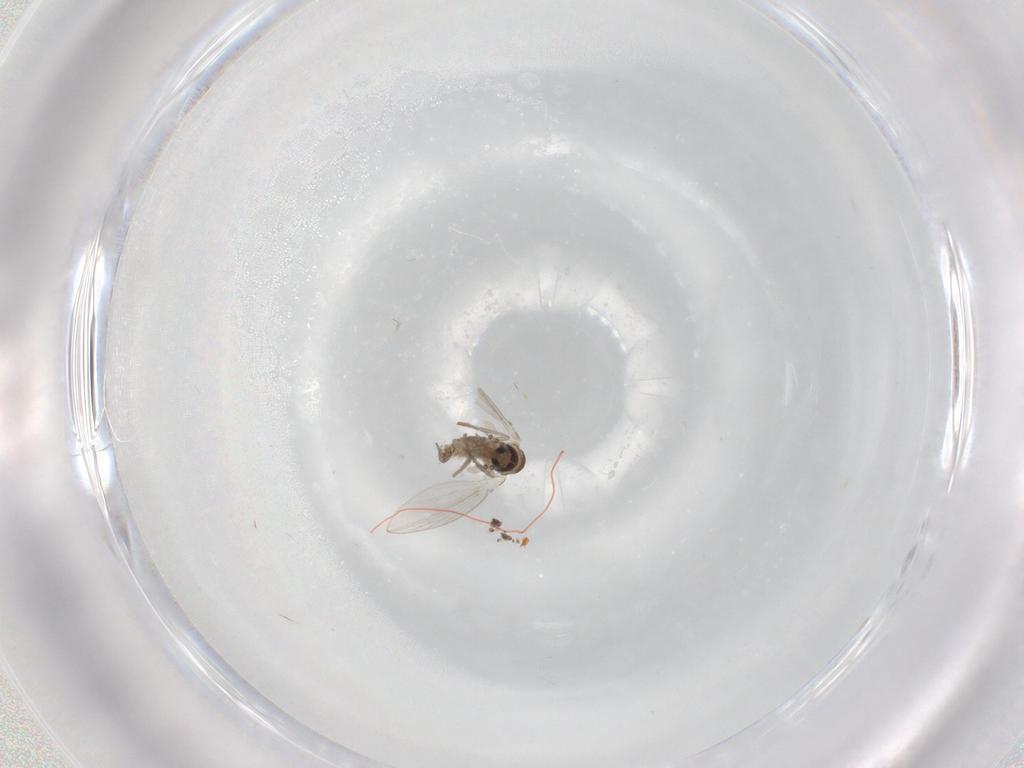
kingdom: Animalia
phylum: Arthropoda
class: Insecta
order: Diptera
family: Psychodidae
